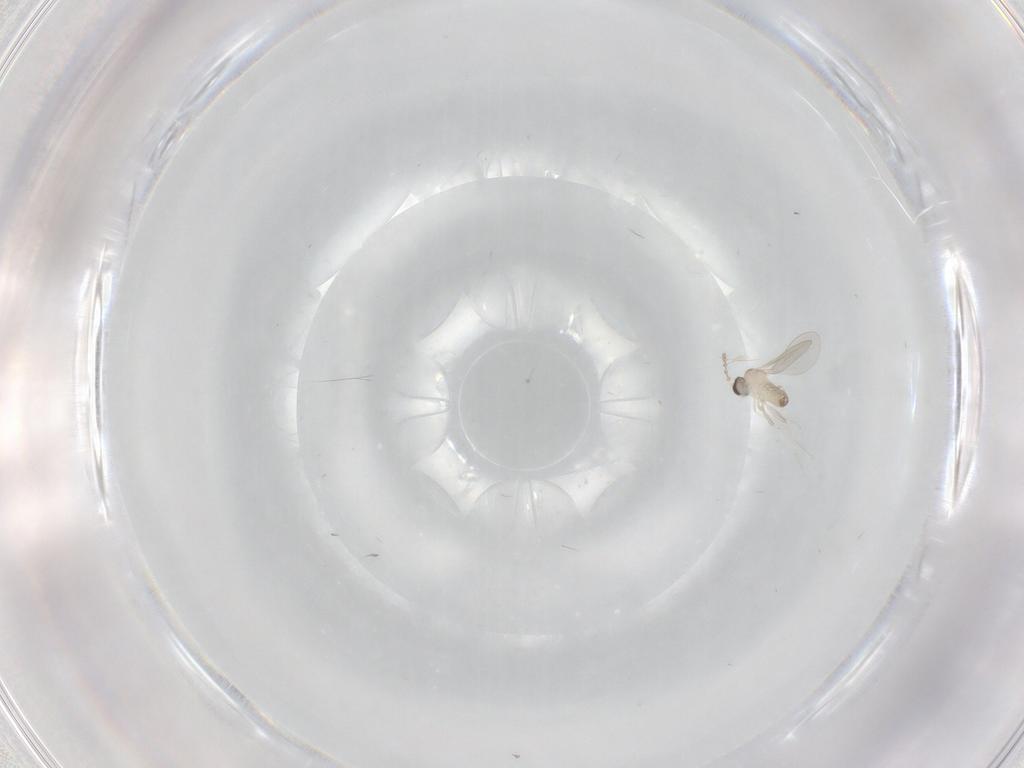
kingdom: Animalia
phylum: Arthropoda
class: Insecta
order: Diptera
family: Cecidomyiidae
